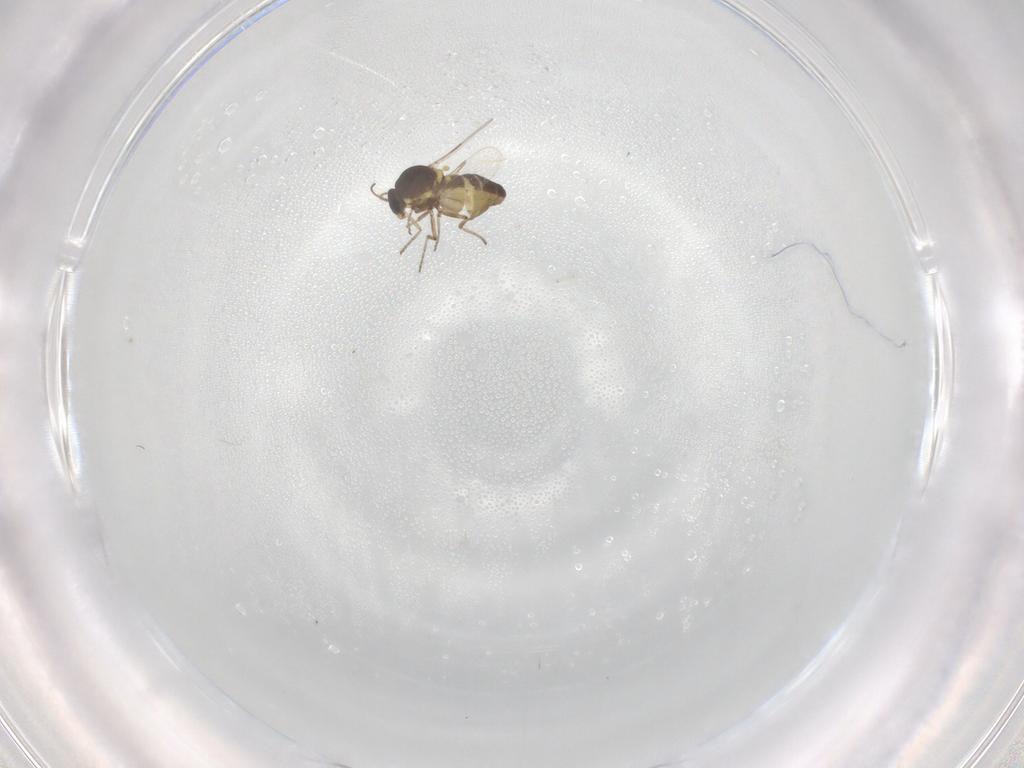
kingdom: Animalia
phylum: Arthropoda
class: Insecta
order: Diptera
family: Ceratopogonidae
